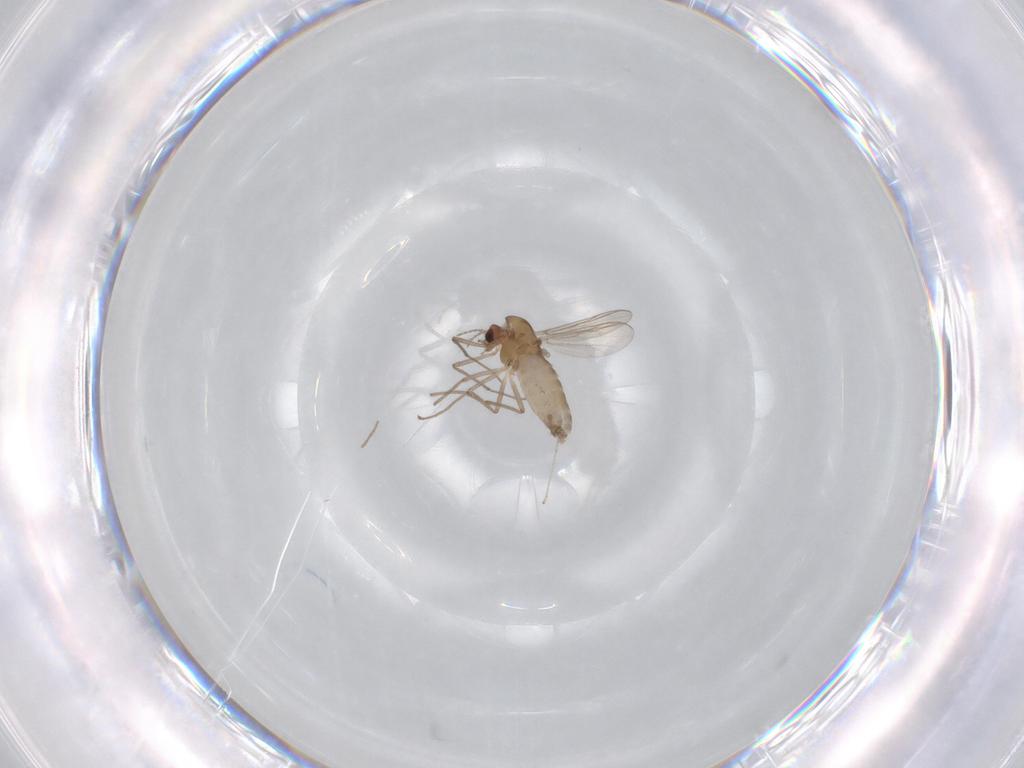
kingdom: Animalia
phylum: Arthropoda
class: Insecta
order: Diptera
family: Chironomidae
